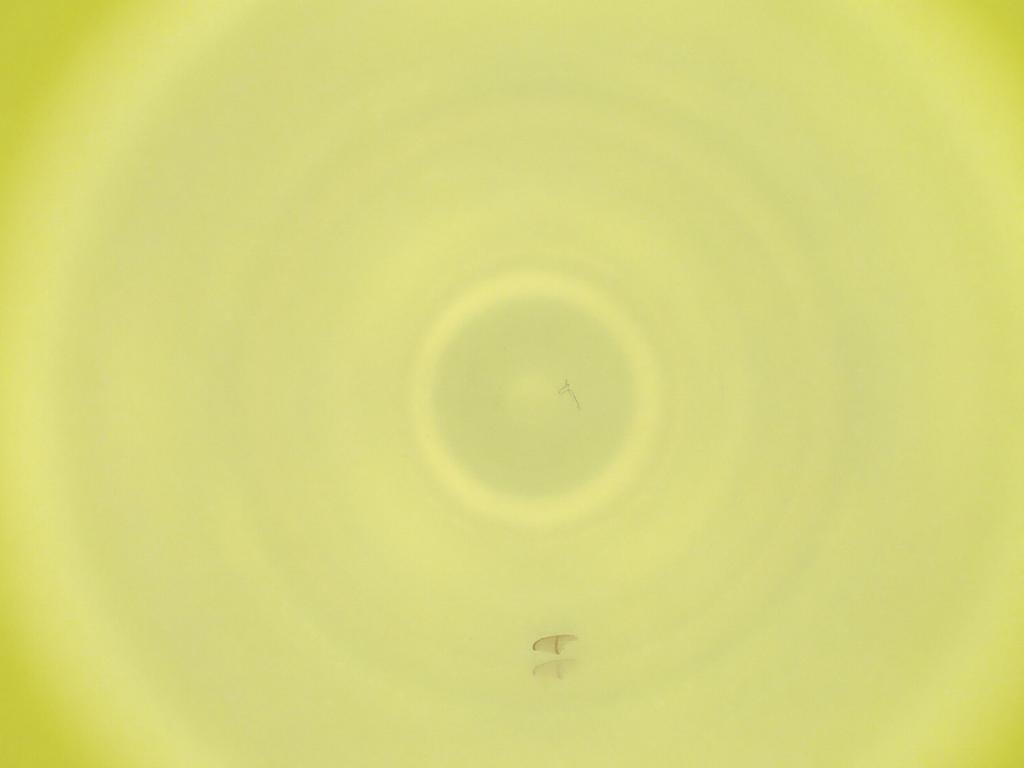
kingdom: Animalia
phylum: Arthropoda
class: Insecta
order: Diptera
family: Cecidomyiidae
